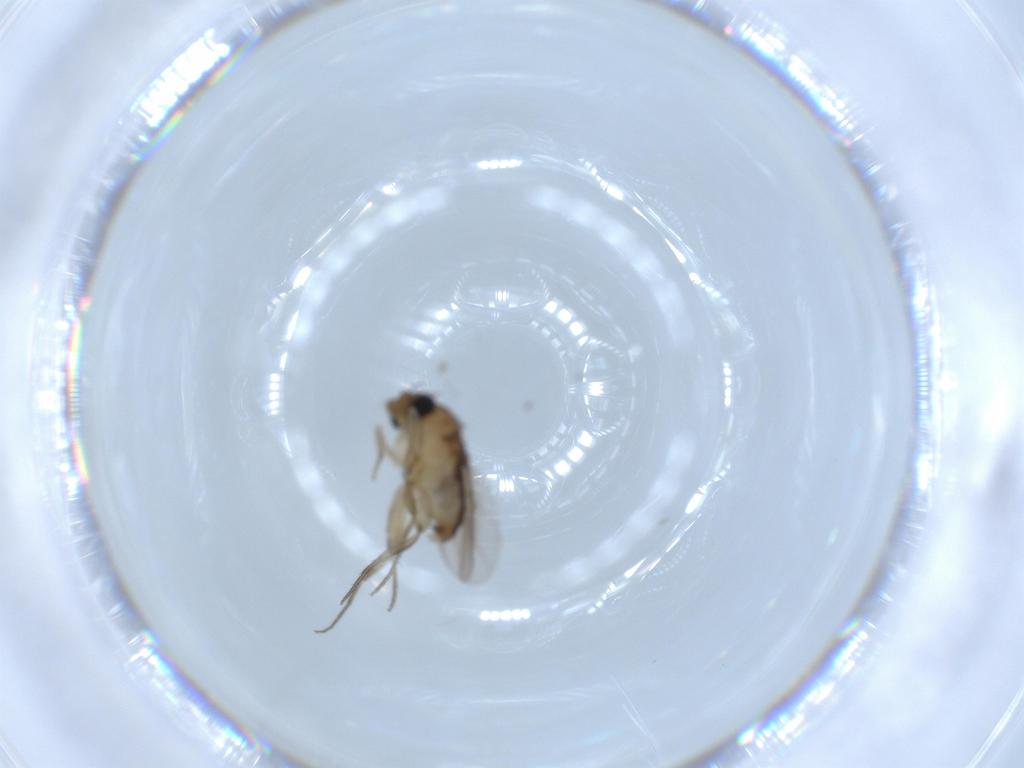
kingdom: Animalia
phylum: Arthropoda
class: Insecta
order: Diptera
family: Phoridae
